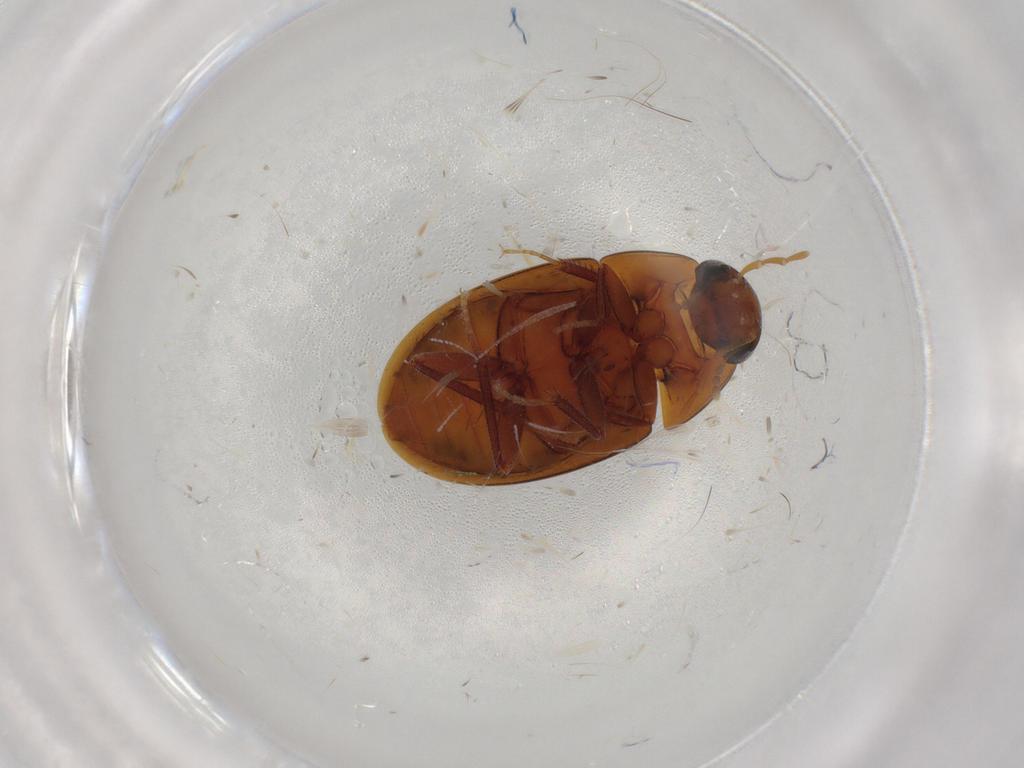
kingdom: Animalia
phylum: Arthropoda
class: Insecta
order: Coleoptera
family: Hydrophilidae
